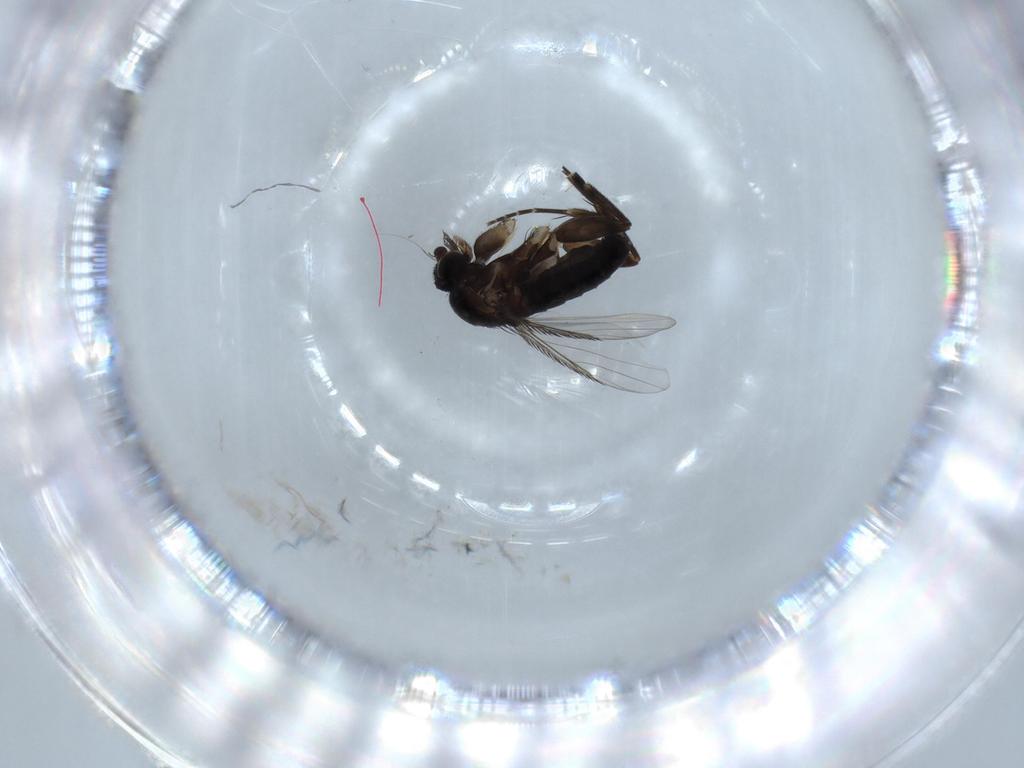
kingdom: Animalia
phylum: Arthropoda
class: Insecta
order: Diptera
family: Phoridae
